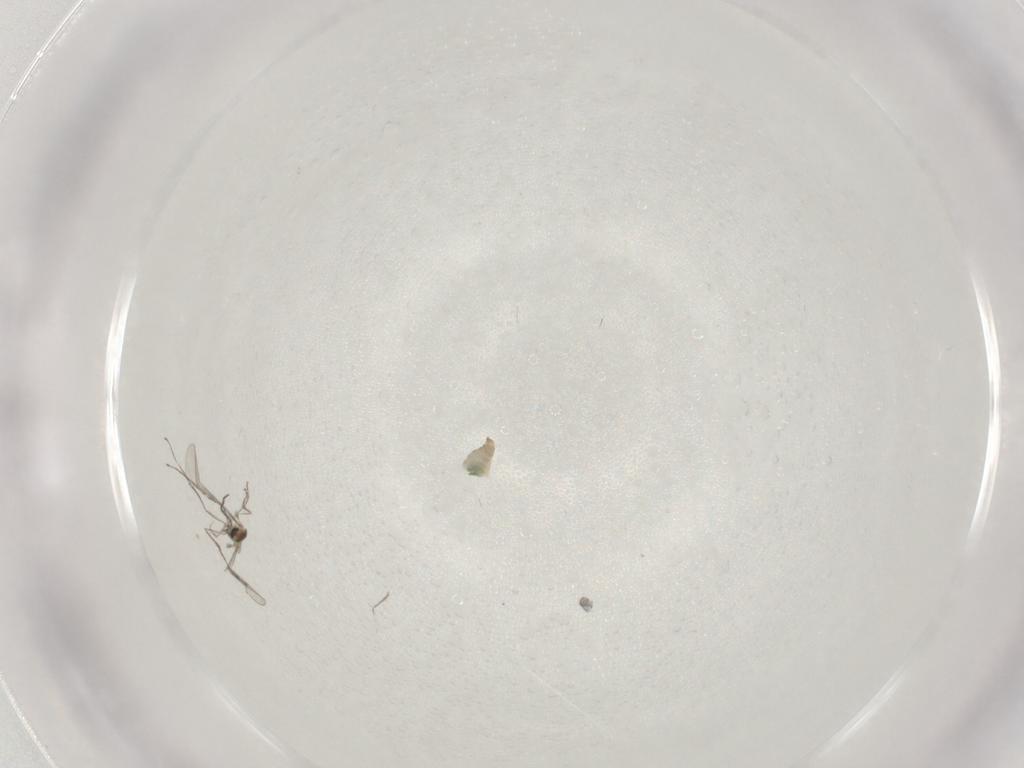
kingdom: Animalia
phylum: Arthropoda
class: Insecta
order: Diptera
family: Cecidomyiidae
